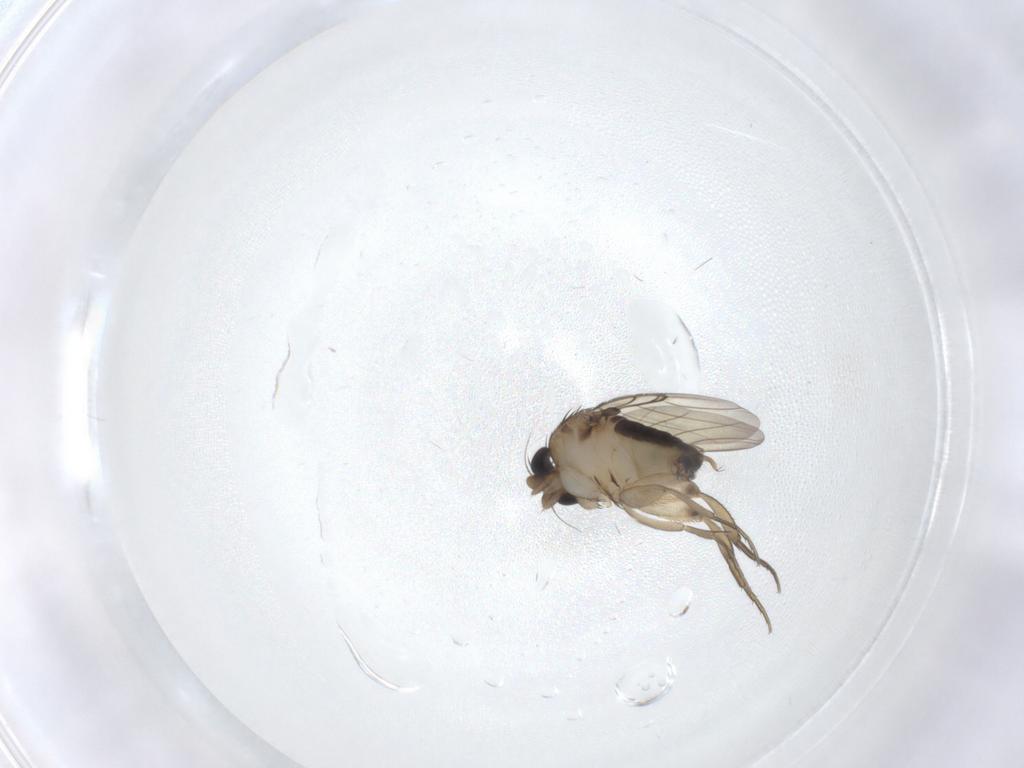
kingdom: Animalia
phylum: Arthropoda
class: Insecta
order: Diptera
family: Phoridae
